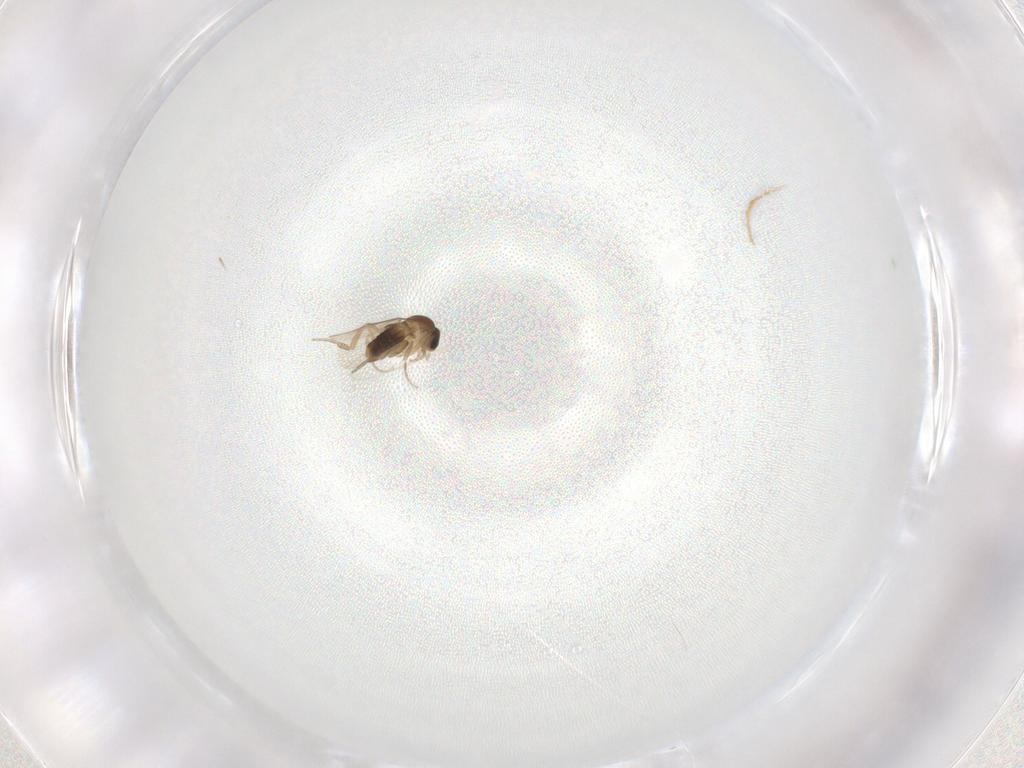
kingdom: Animalia
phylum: Arthropoda
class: Insecta
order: Diptera
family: Phoridae
